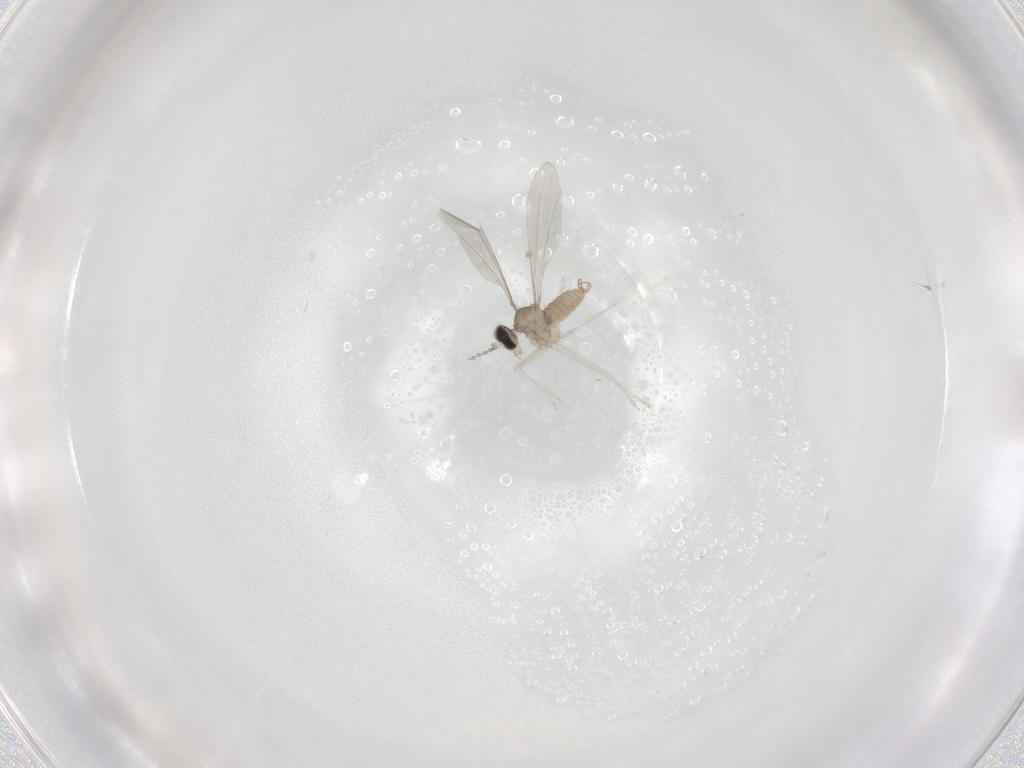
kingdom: Animalia
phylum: Arthropoda
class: Insecta
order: Diptera
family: Cecidomyiidae
